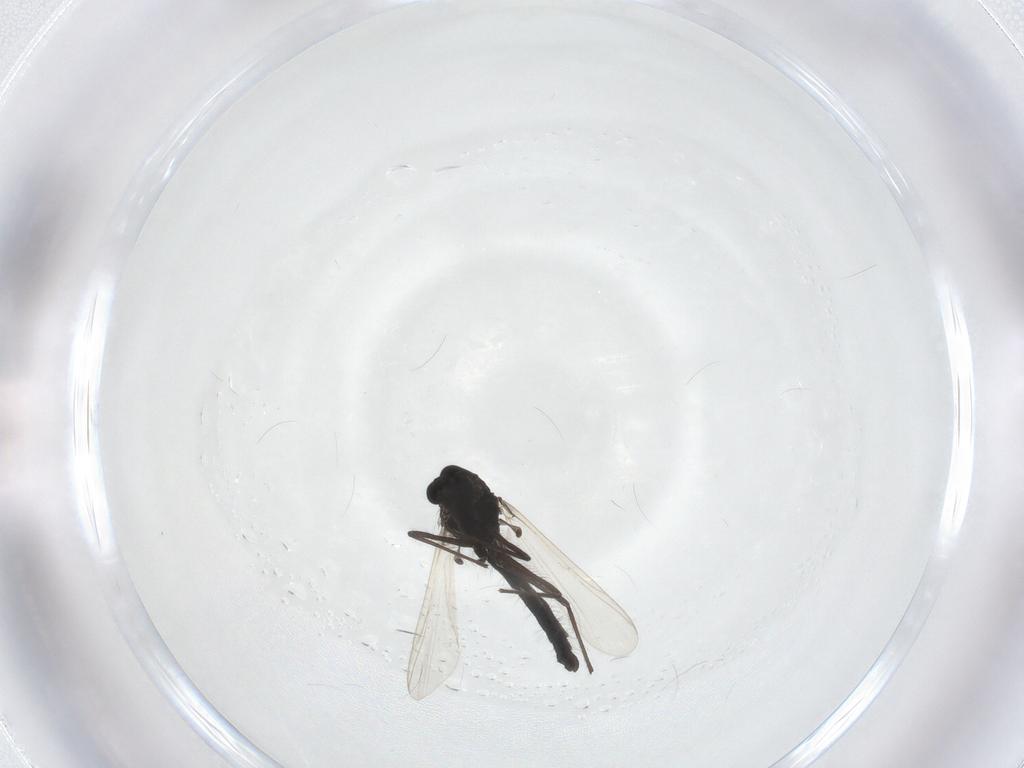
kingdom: Animalia
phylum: Arthropoda
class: Insecta
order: Diptera
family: Chironomidae
